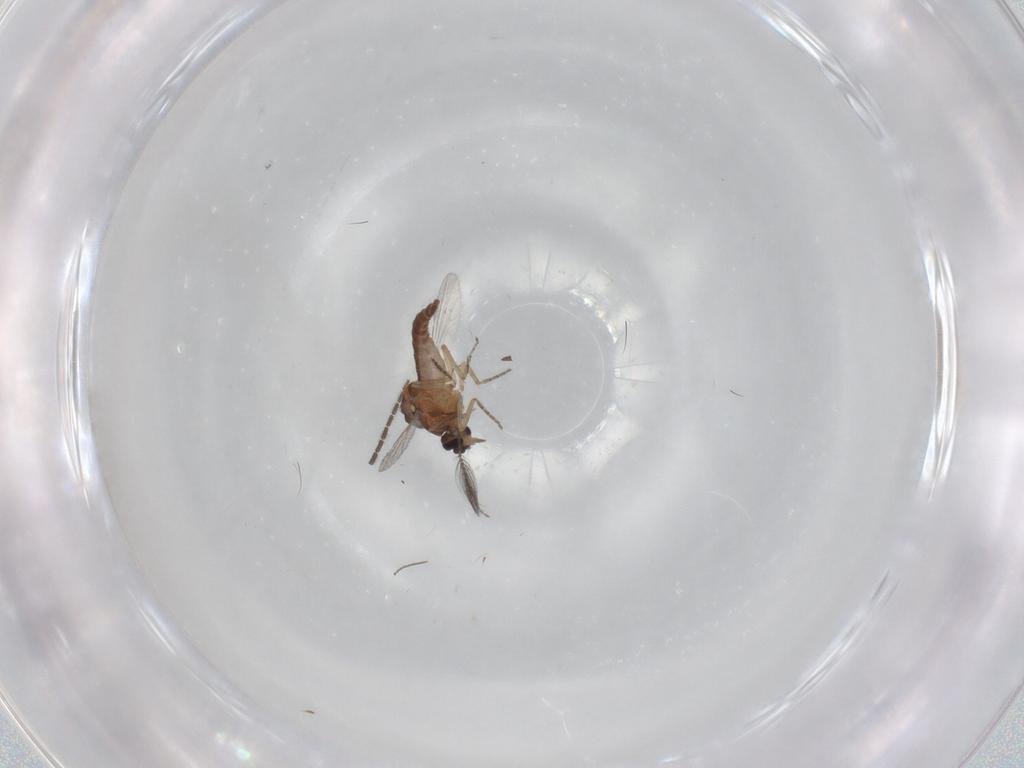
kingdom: Animalia
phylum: Arthropoda
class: Insecta
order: Diptera
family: Ceratopogonidae
